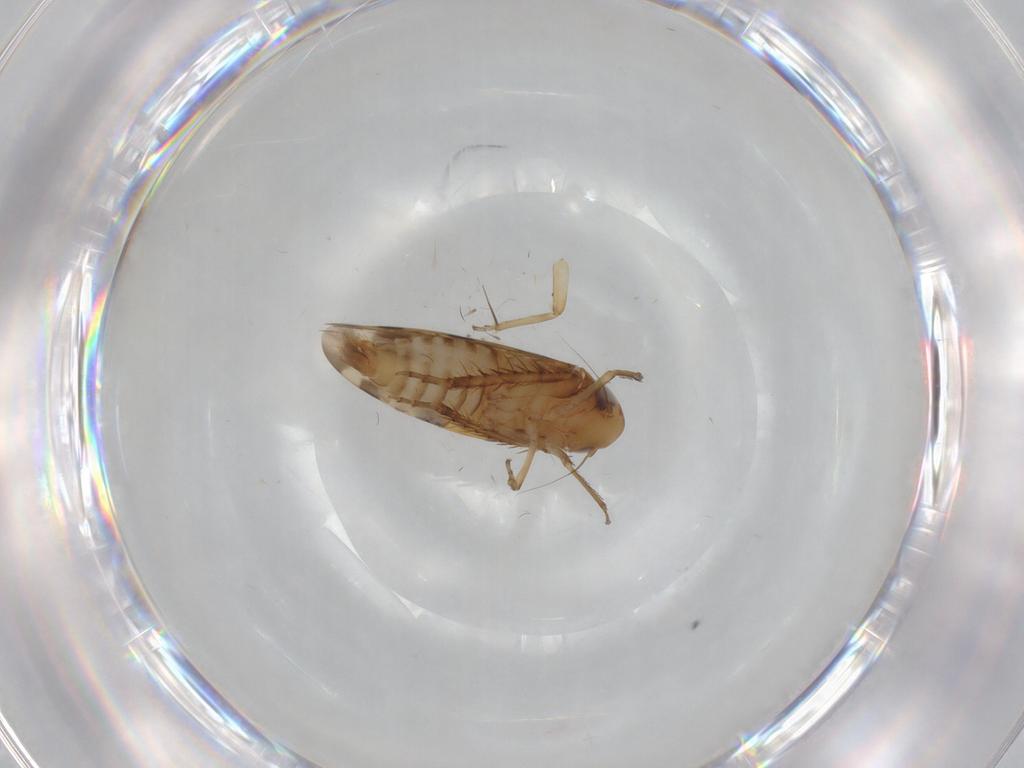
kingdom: Animalia
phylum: Arthropoda
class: Insecta
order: Hemiptera
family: Cicadellidae
